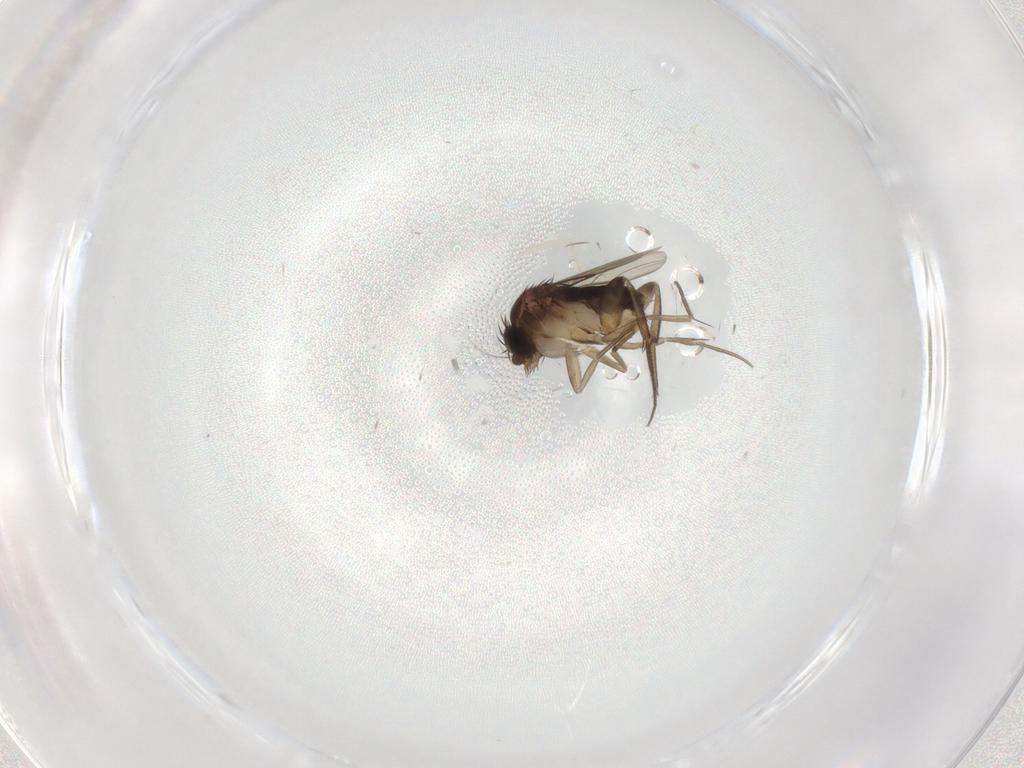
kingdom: Animalia
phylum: Arthropoda
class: Insecta
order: Diptera
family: Phoridae
